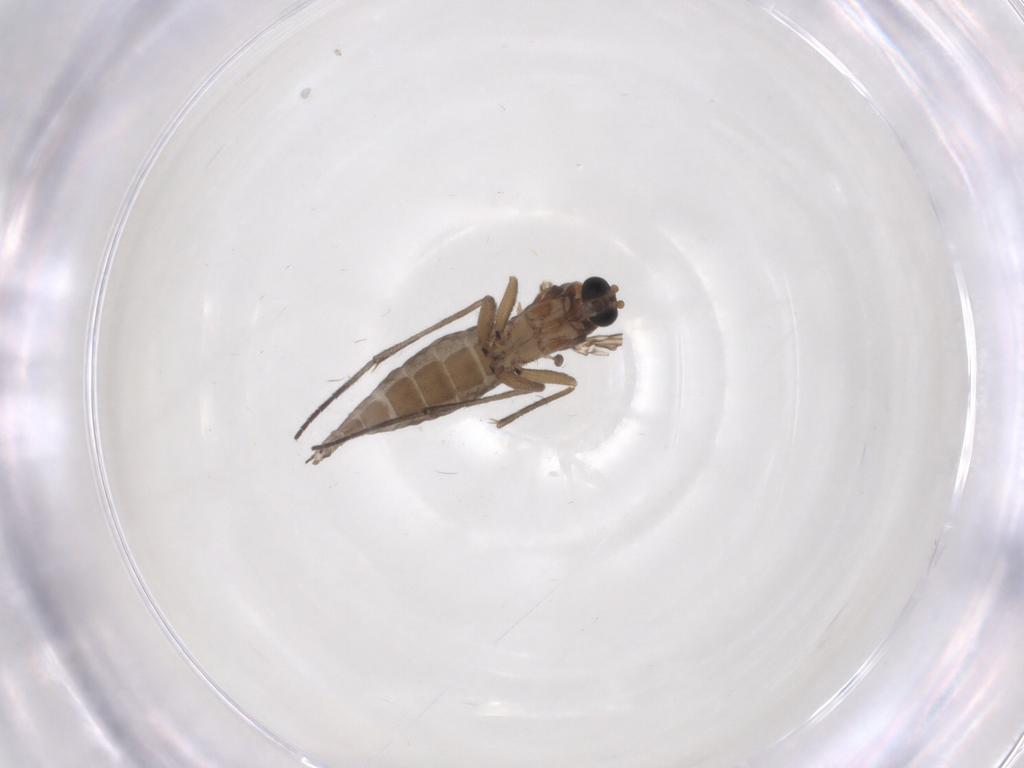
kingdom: Animalia
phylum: Arthropoda
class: Insecta
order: Diptera
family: Sciaridae
